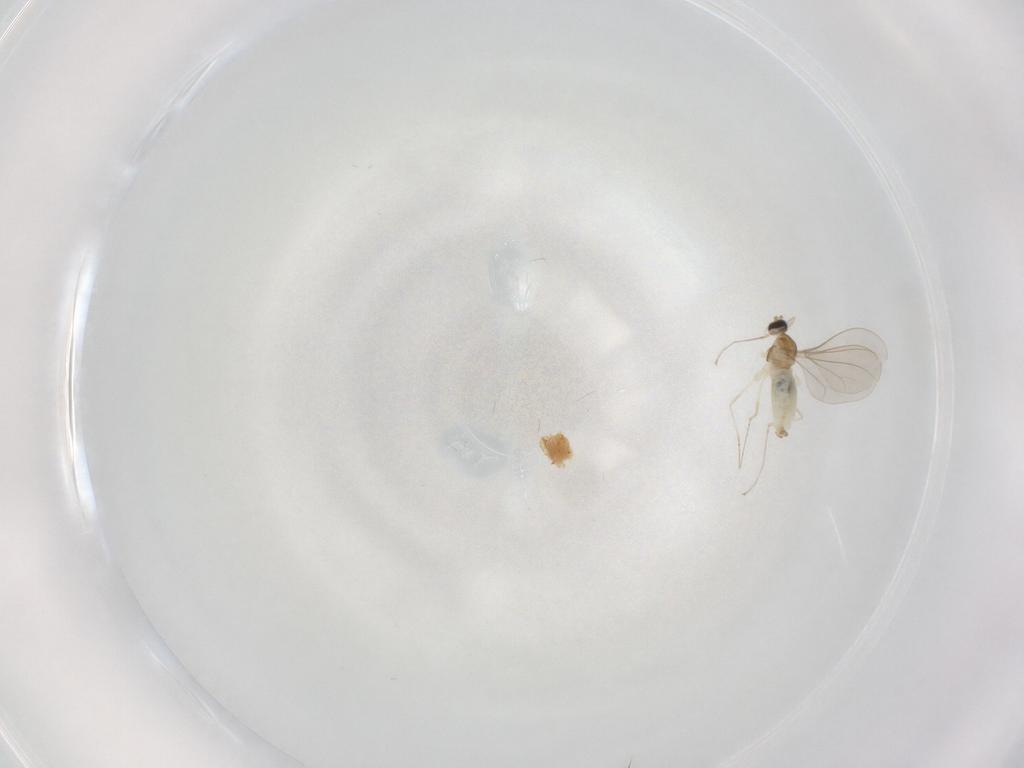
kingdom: Animalia
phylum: Arthropoda
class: Insecta
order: Diptera
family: Cecidomyiidae
